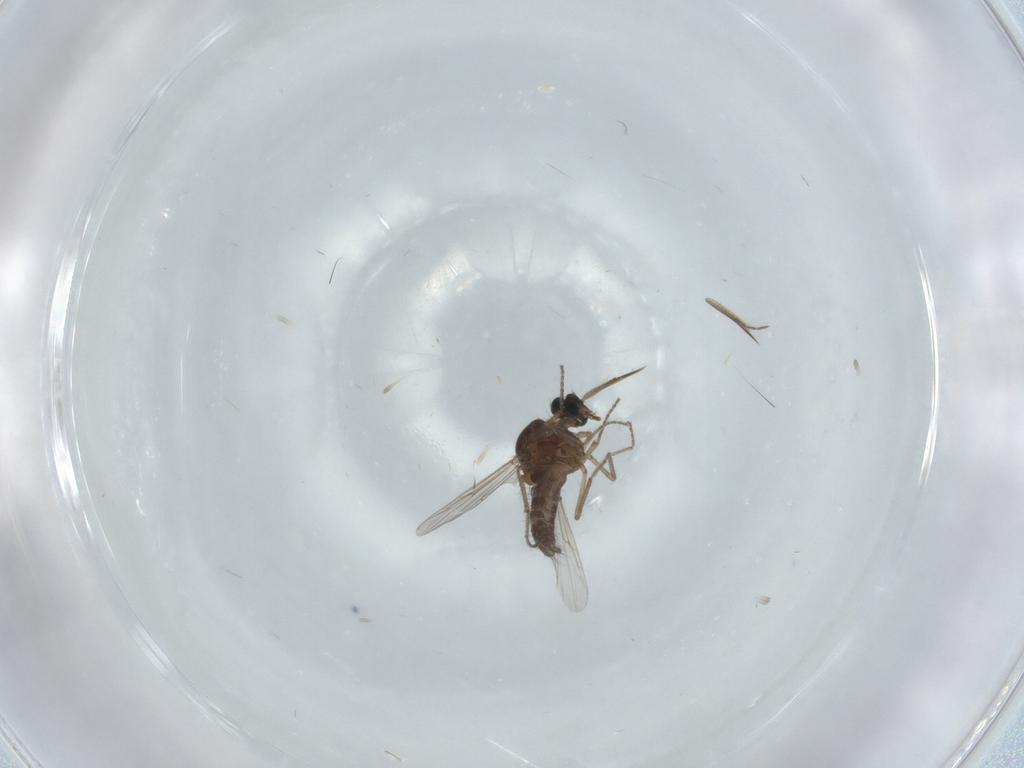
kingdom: Animalia
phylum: Arthropoda
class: Insecta
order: Diptera
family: Ceratopogonidae
